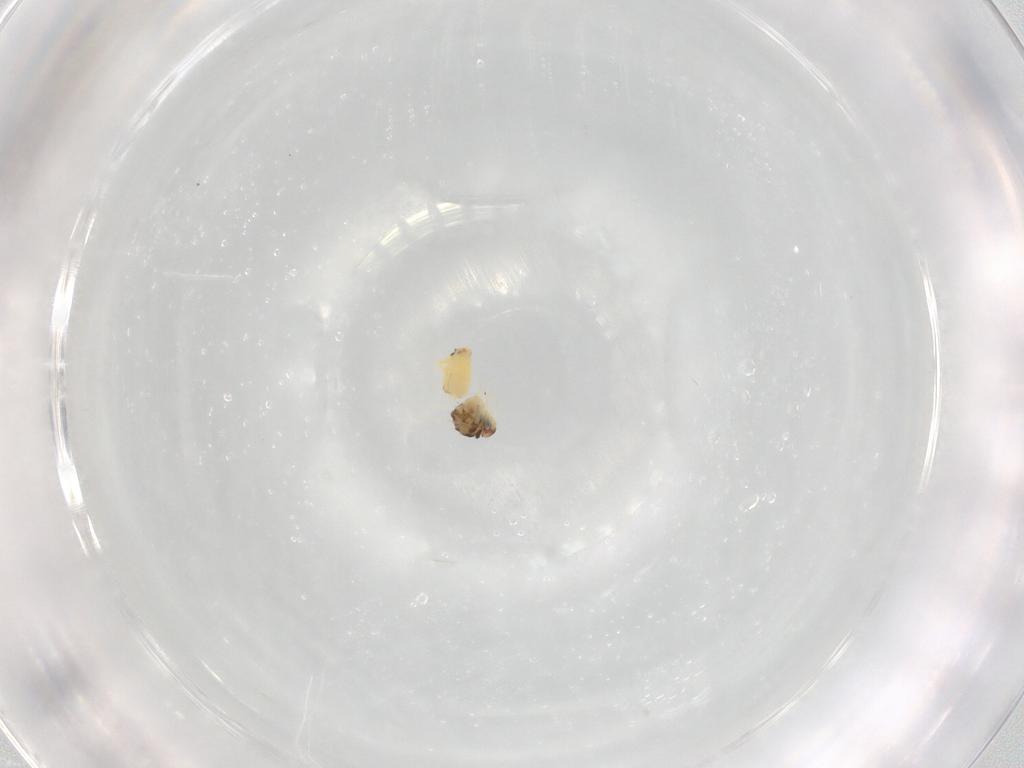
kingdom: Animalia
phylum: Arthropoda
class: Insecta
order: Hemiptera
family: Aleyrodidae
